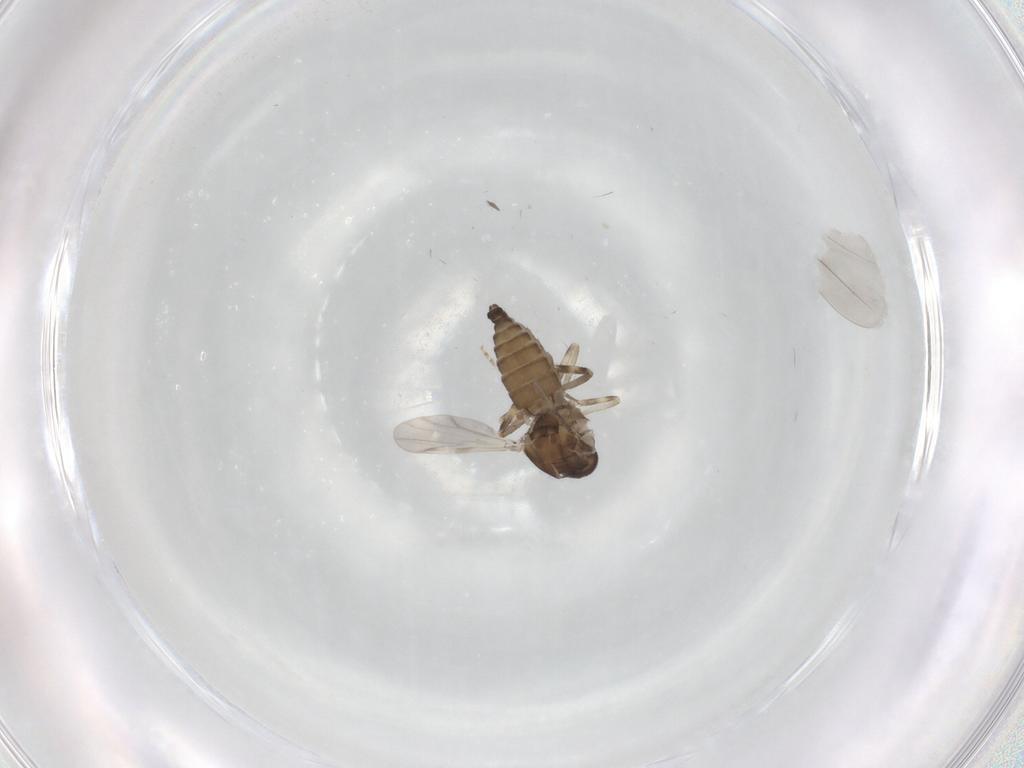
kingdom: Animalia
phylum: Arthropoda
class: Insecta
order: Diptera
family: Ceratopogonidae
